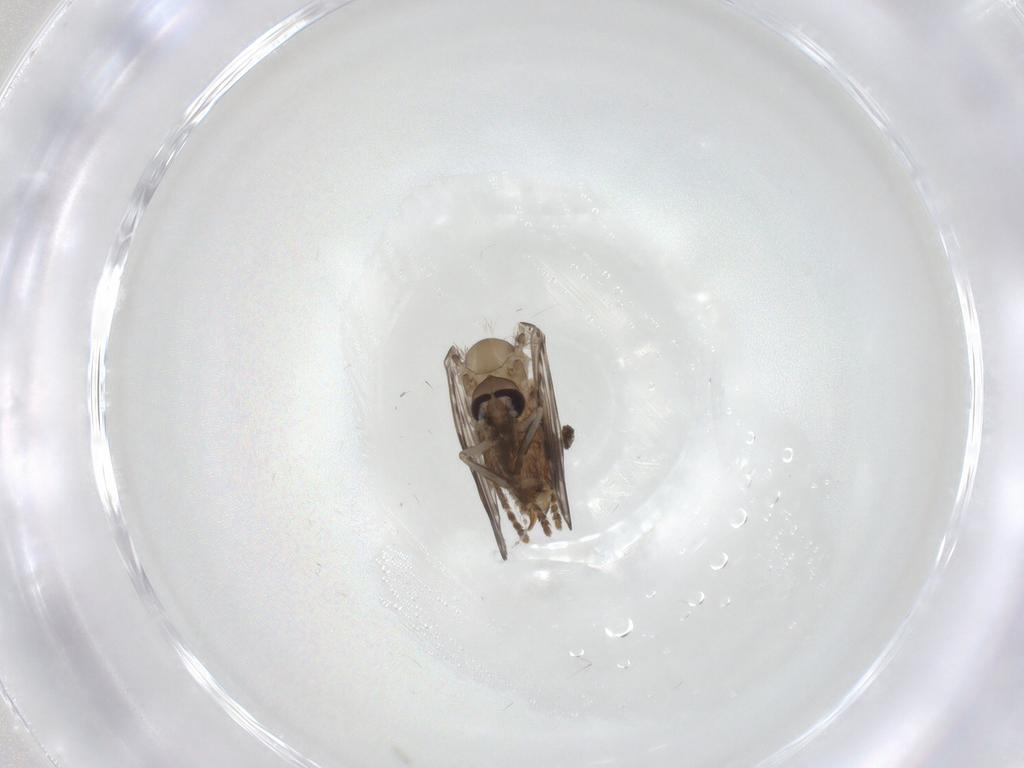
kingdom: Animalia
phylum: Arthropoda
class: Insecta
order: Diptera
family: Psychodidae
